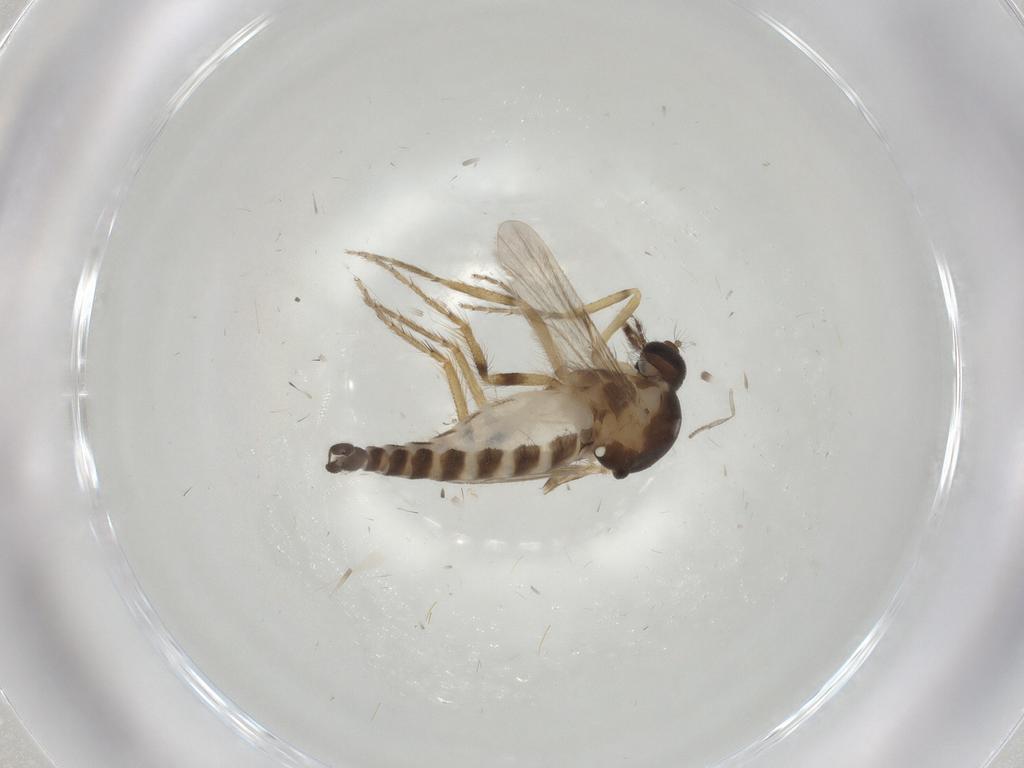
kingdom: Animalia
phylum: Arthropoda
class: Insecta
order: Diptera
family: Ceratopogonidae
